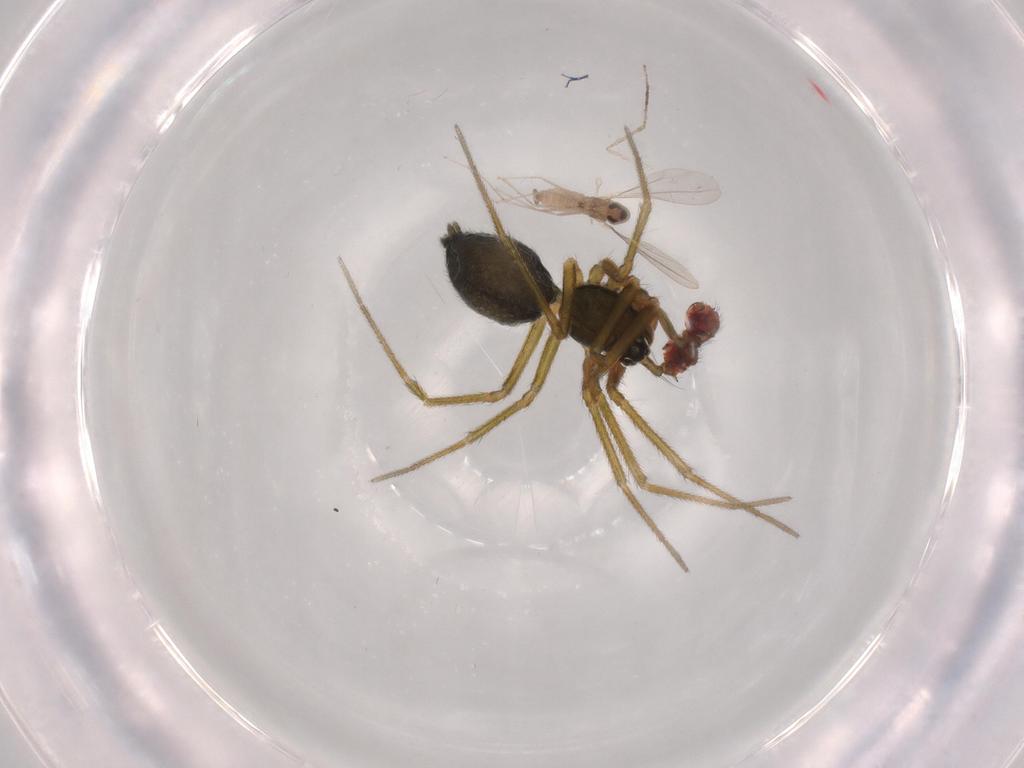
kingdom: Animalia
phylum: Arthropoda
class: Arachnida
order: Araneae
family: Linyphiidae
